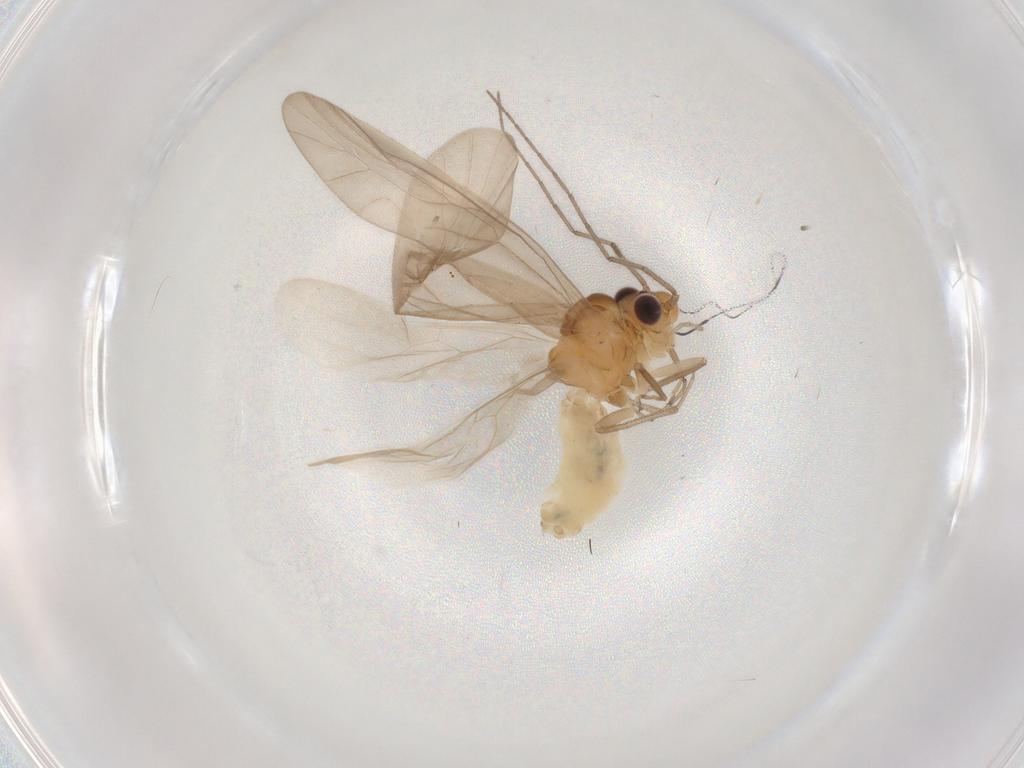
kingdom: Animalia
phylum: Arthropoda
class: Insecta
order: Psocodea
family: Caeciliusidae
